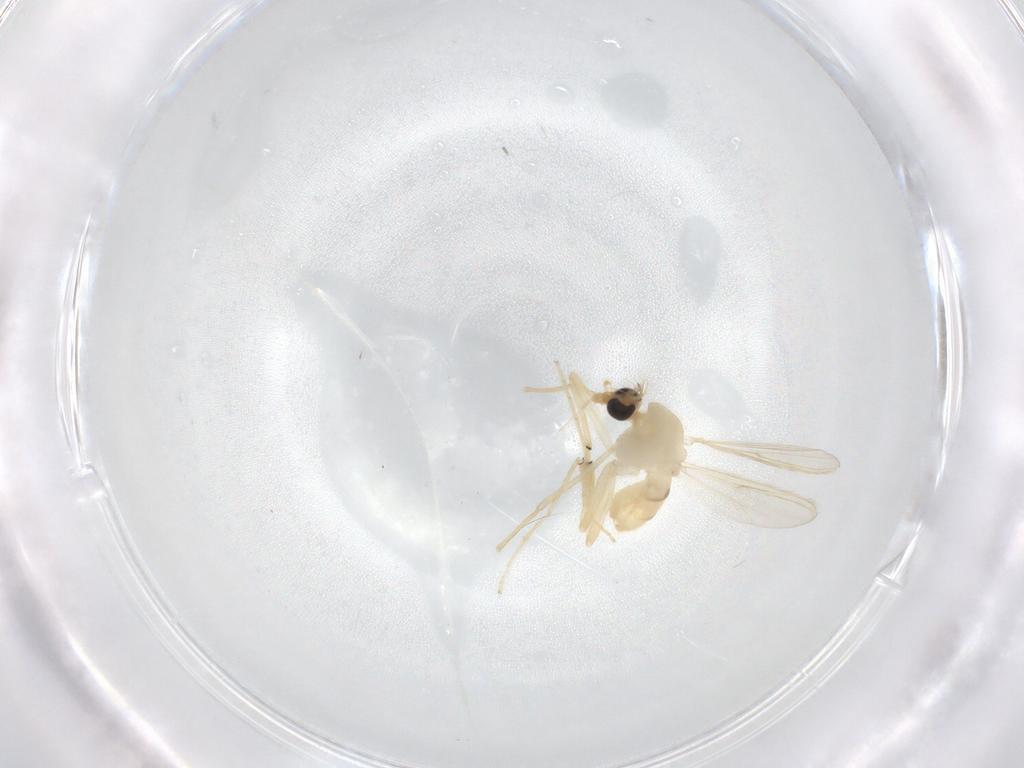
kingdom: Animalia
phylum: Arthropoda
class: Insecta
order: Diptera
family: Chironomidae
